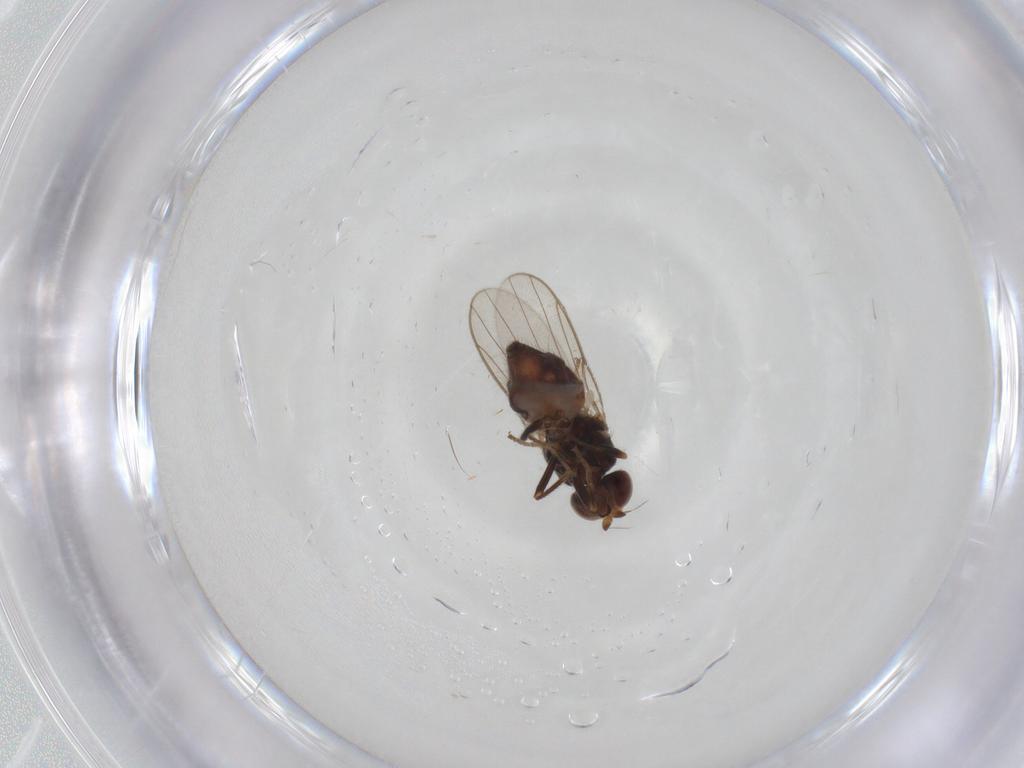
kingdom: Animalia
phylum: Arthropoda
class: Insecta
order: Diptera
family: Chloropidae
